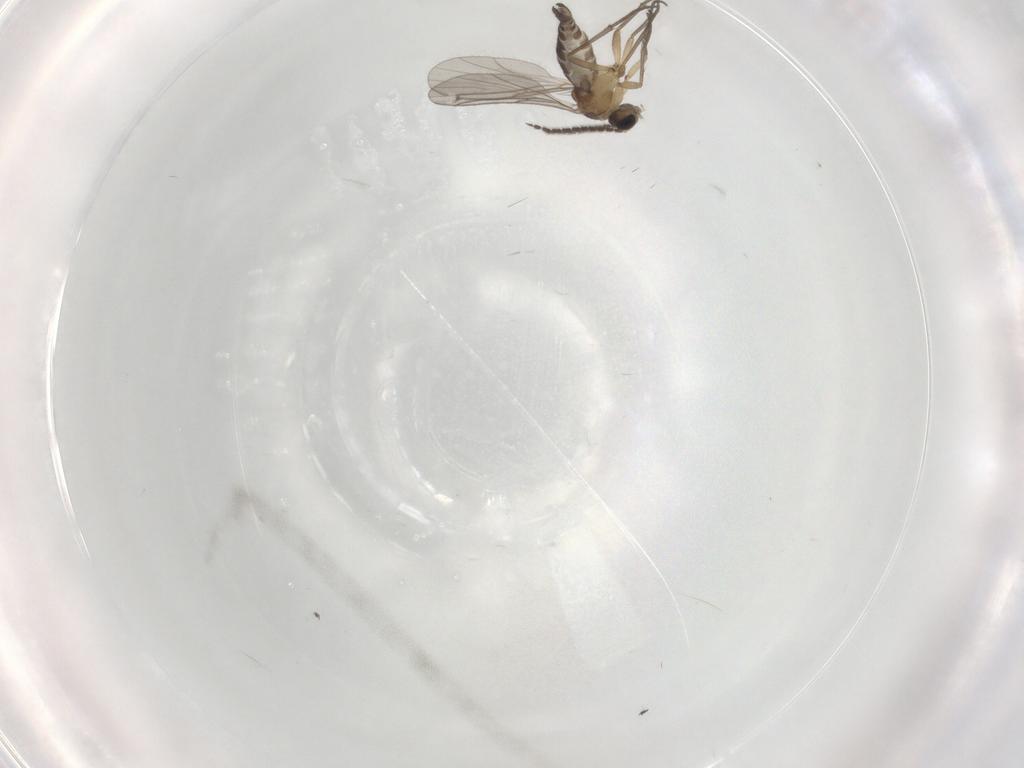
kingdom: Animalia
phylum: Arthropoda
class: Insecta
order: Diptera
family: Sciaridae
